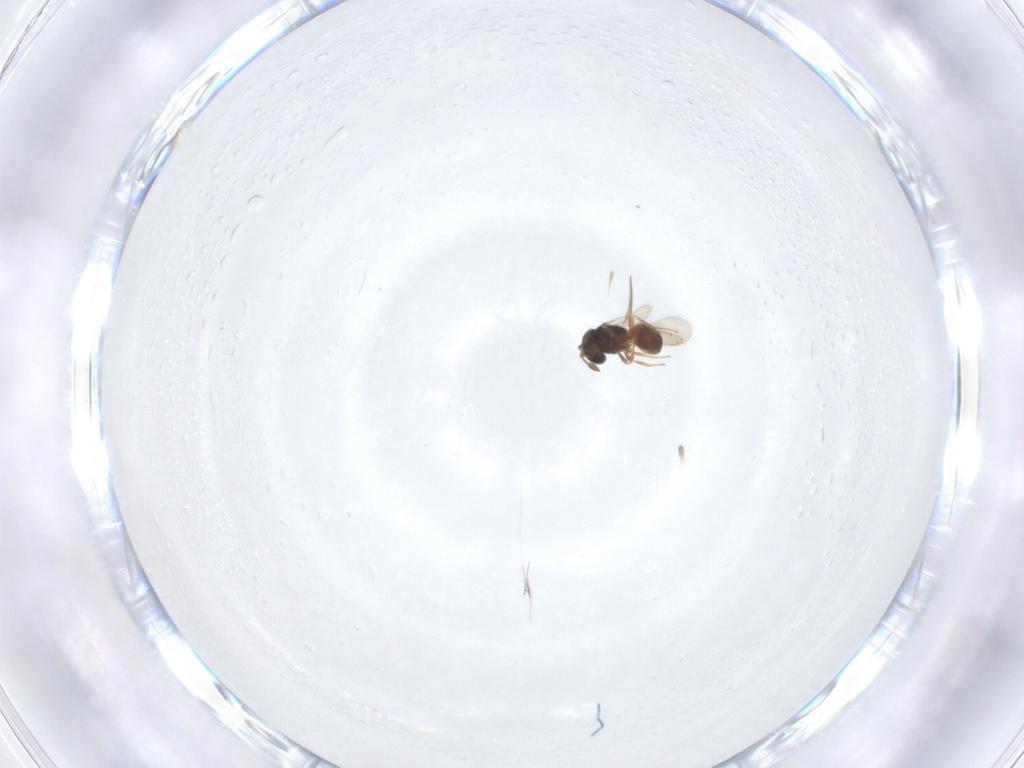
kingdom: Animalia
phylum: Arthropoda
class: Insecta
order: Hymenoptera
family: Scelionidae
